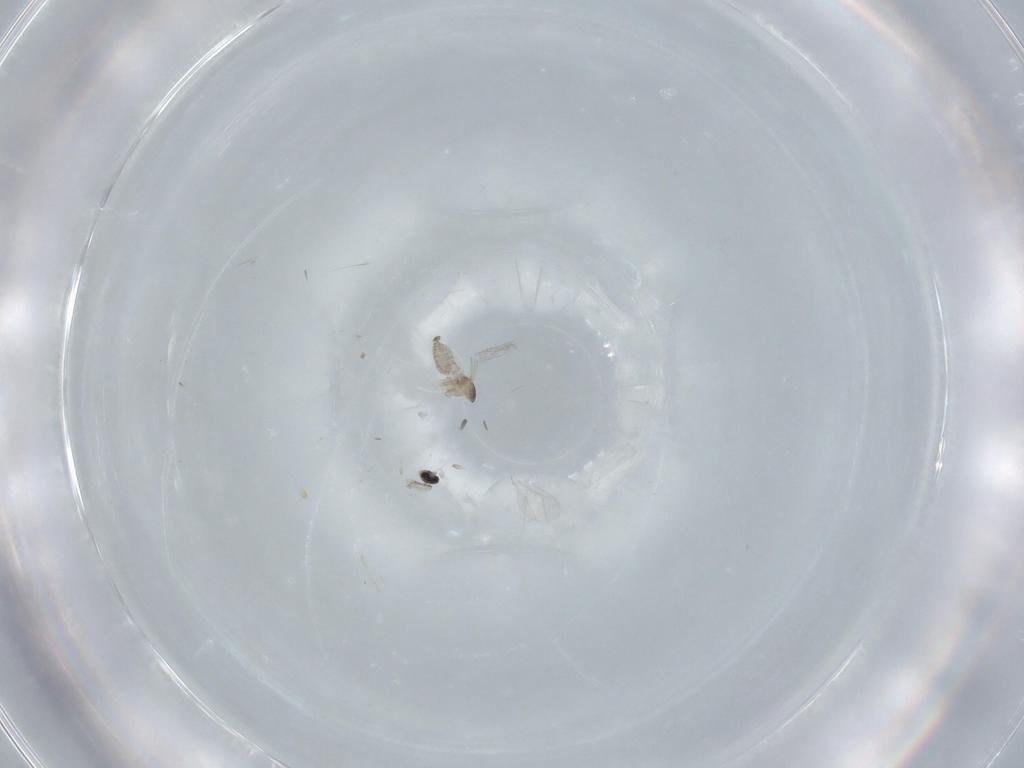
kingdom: Animalia
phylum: Arthropoda
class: Insecta
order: Diptera
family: Cecidomyiidae
